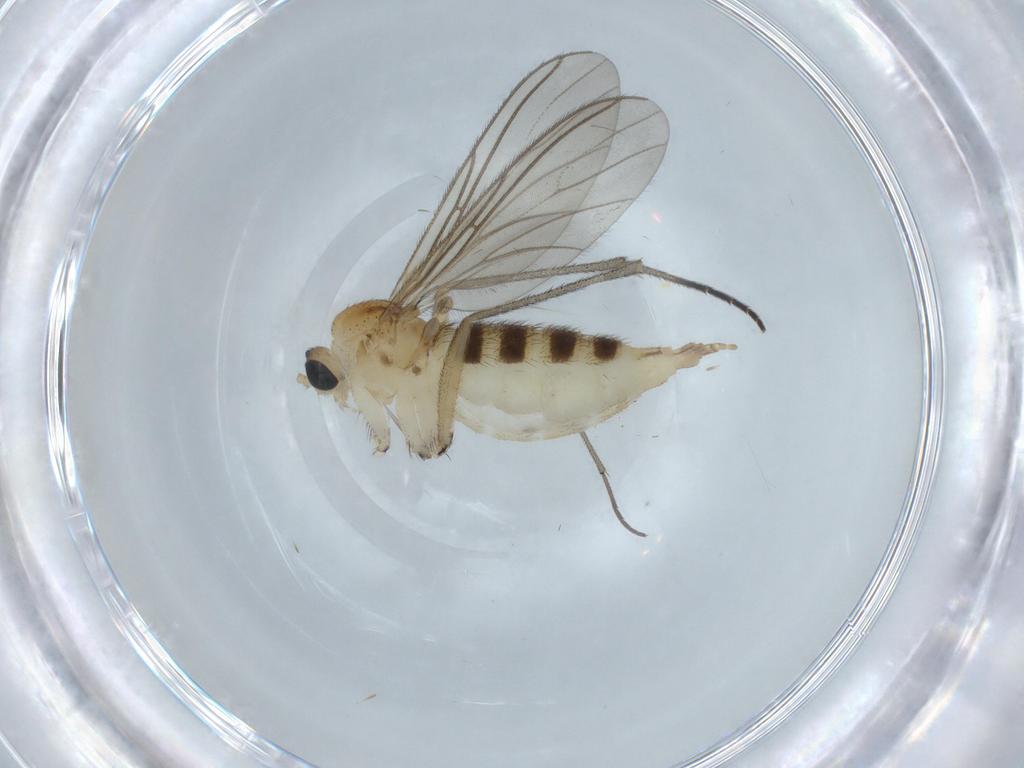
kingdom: Animalia
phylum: Arthropoda
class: Insecta
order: Diptera
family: Sciaridae
